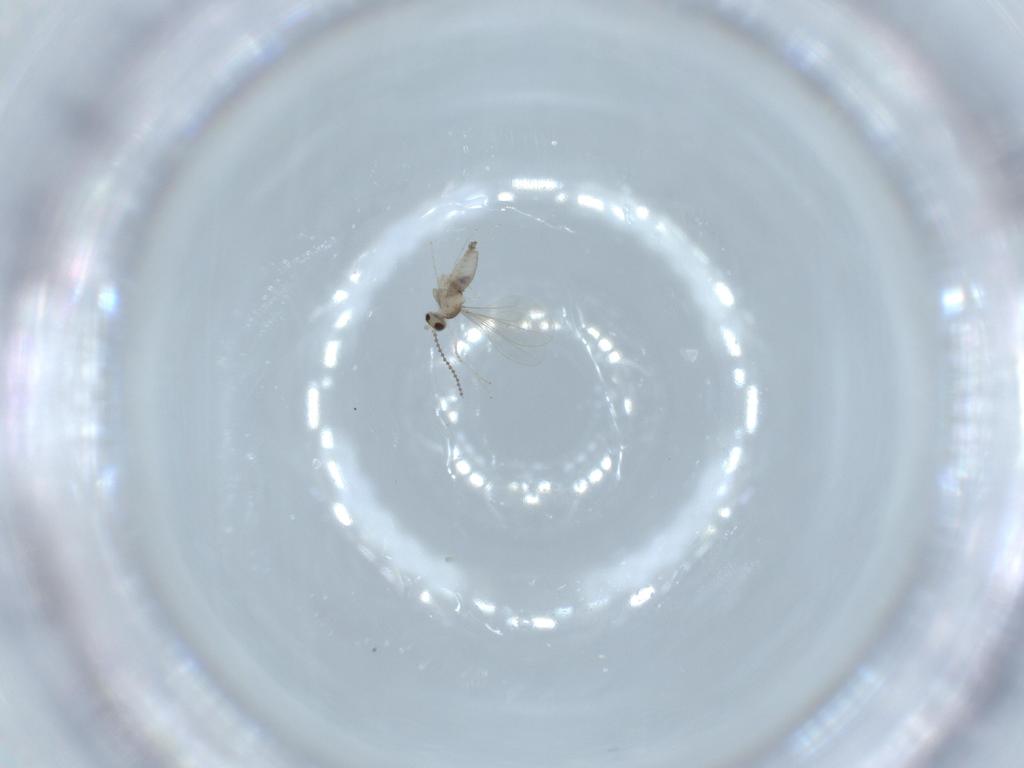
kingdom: Animalia
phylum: Arthropoda
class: Insecta
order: Diptera
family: Cecidomyiidae
